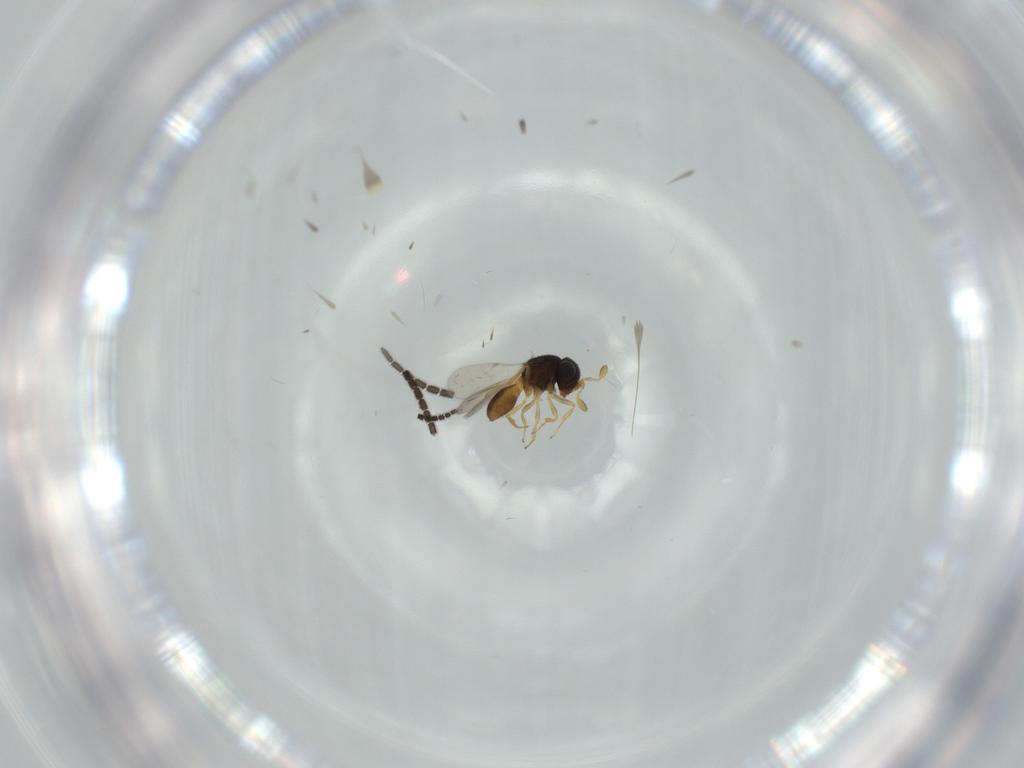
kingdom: Animalia
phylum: Arthropoda
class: Insecta
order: Hymenoptera
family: Scelionidae
